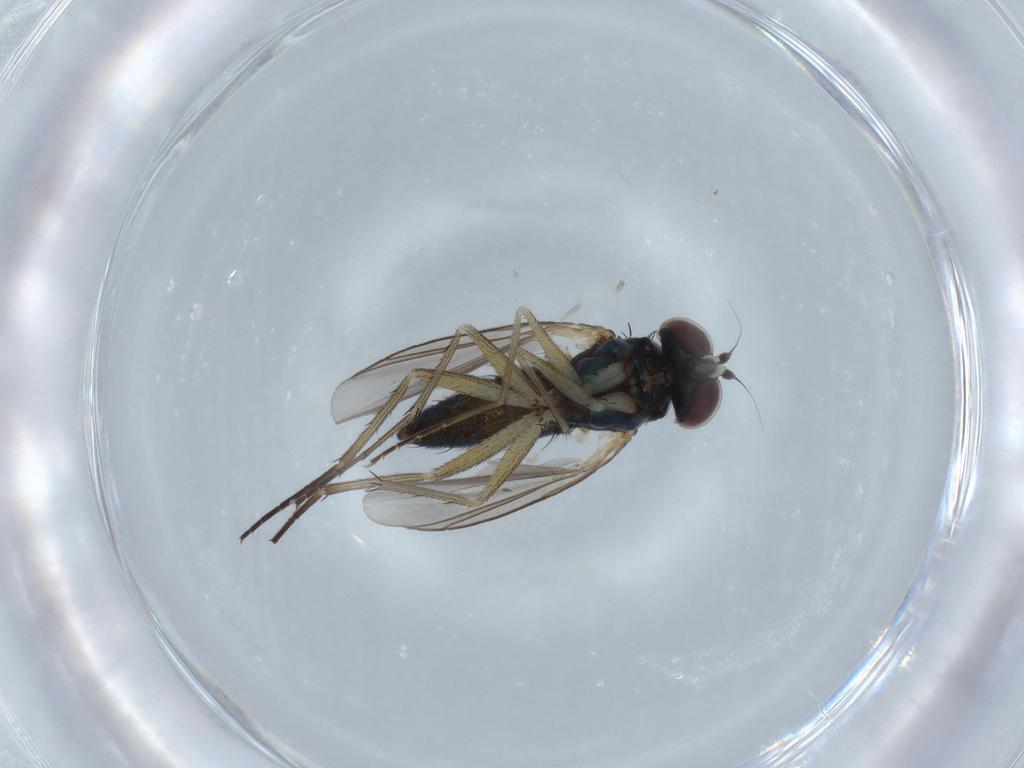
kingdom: Animalia
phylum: Arthropoda
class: Insecta
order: Diptera
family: Dolichopodidae
